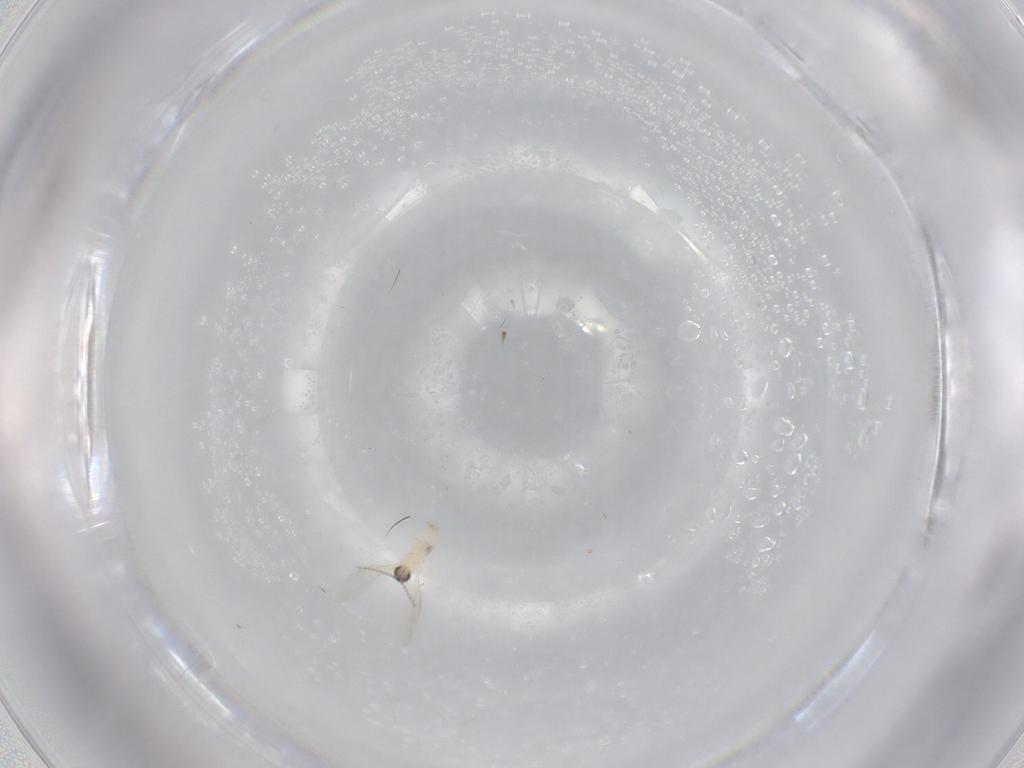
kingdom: Animalia
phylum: Arthropoda
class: Insecta
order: Diptera
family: Cecidomyiidae
